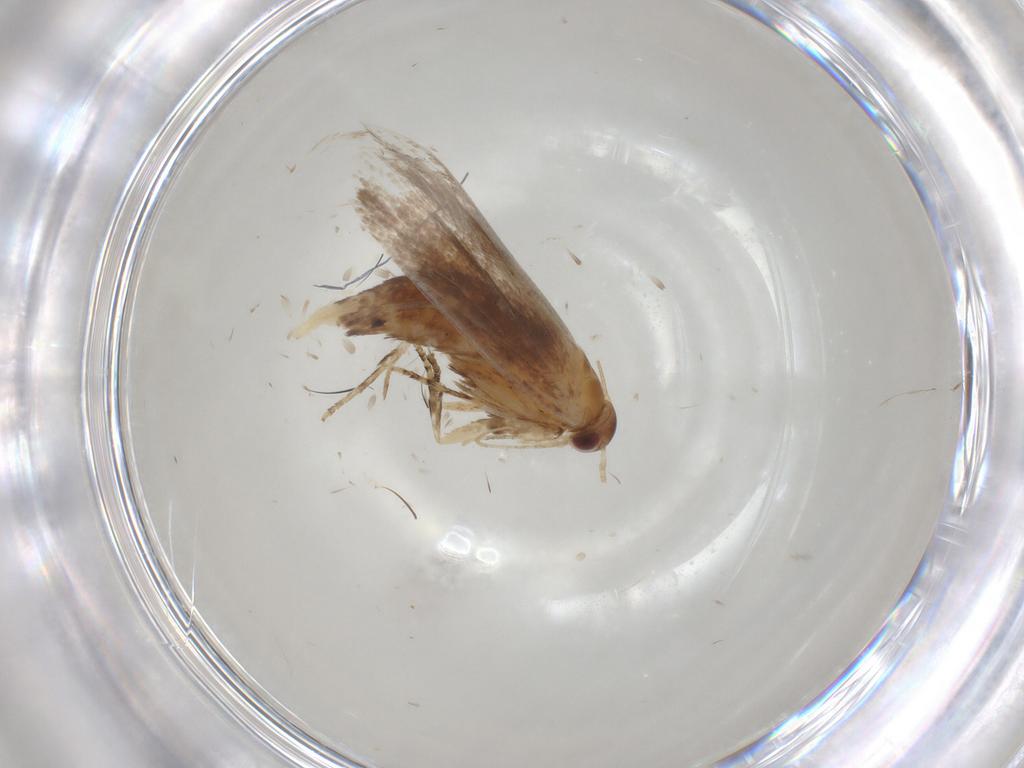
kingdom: Animalia
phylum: Arthropoda
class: Insecta
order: Lepidoptera
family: Oecophoridae
